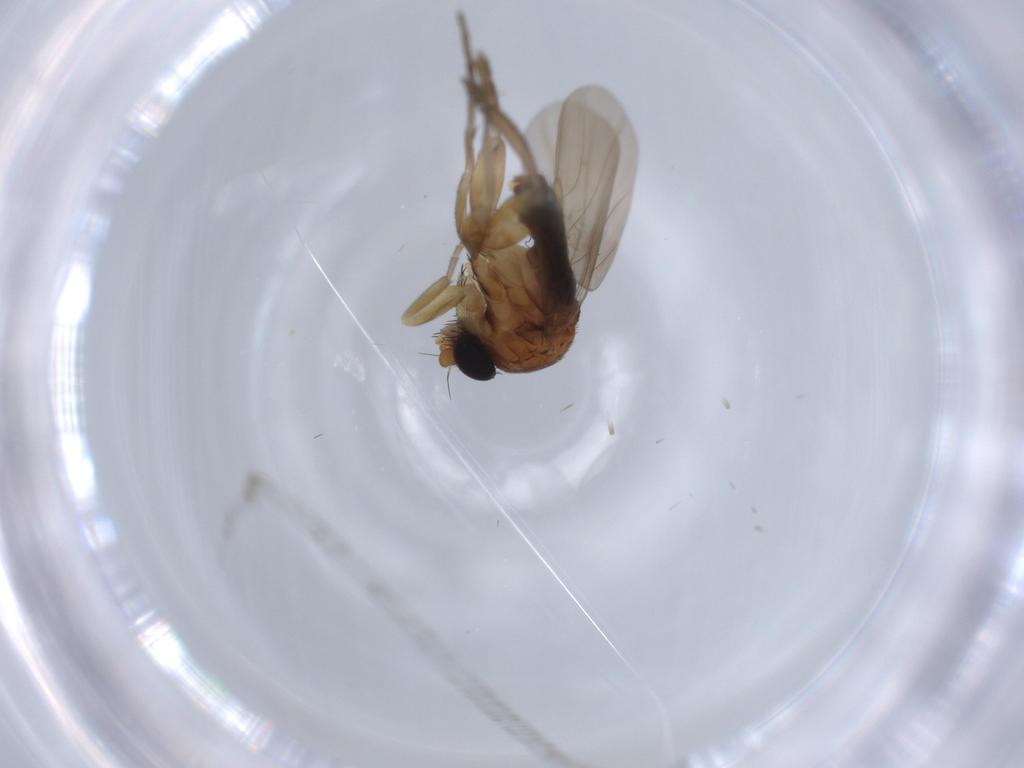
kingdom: Animalia
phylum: Arthropoda
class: Insecta
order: Diptera
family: Phoridae
